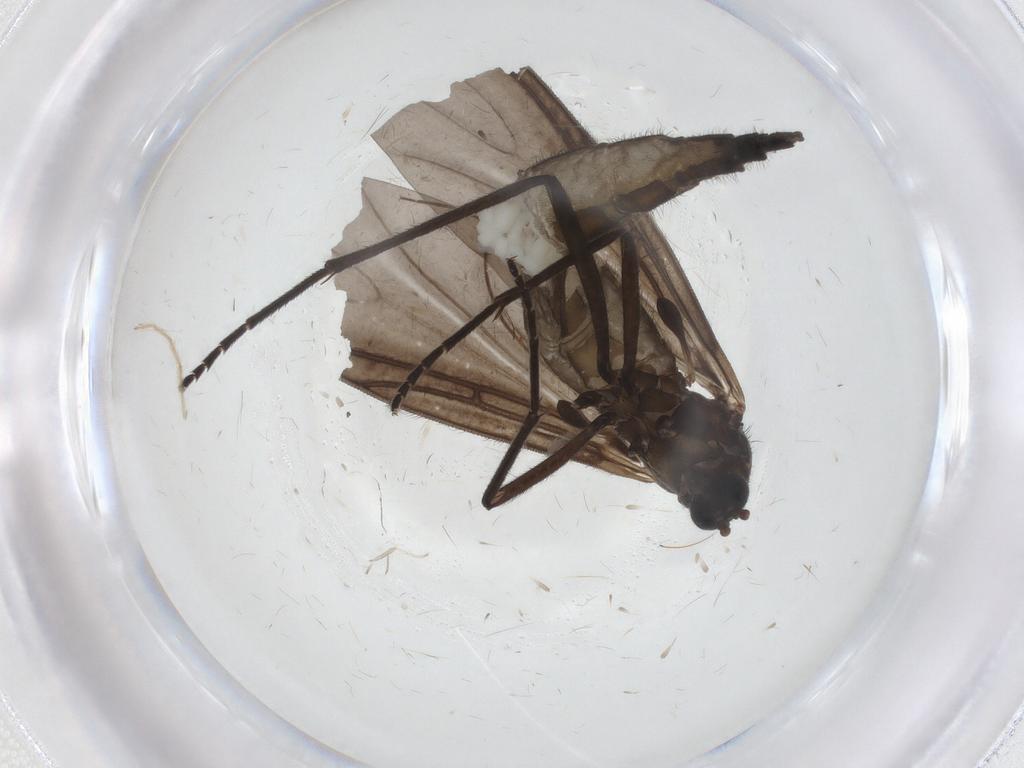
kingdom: Animalia
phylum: Arthropoda
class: Insecta
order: Diptera
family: Sciaridae
